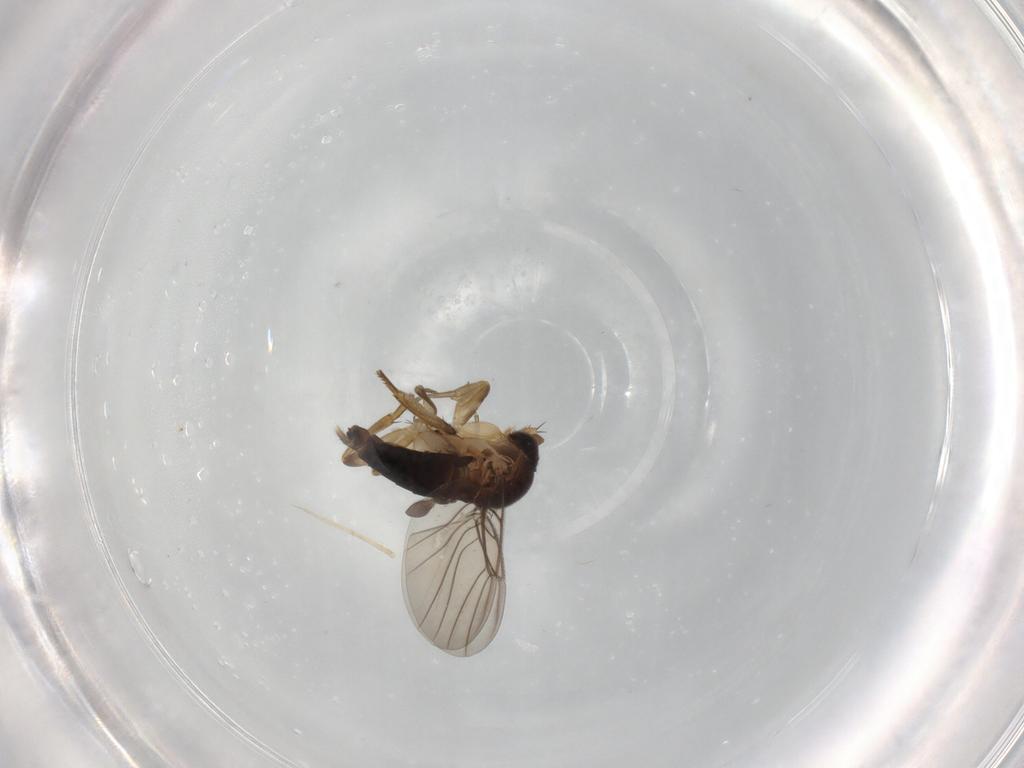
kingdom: Animalia
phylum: Arthropoda
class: Insecta
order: Diptera
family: Phoridae
